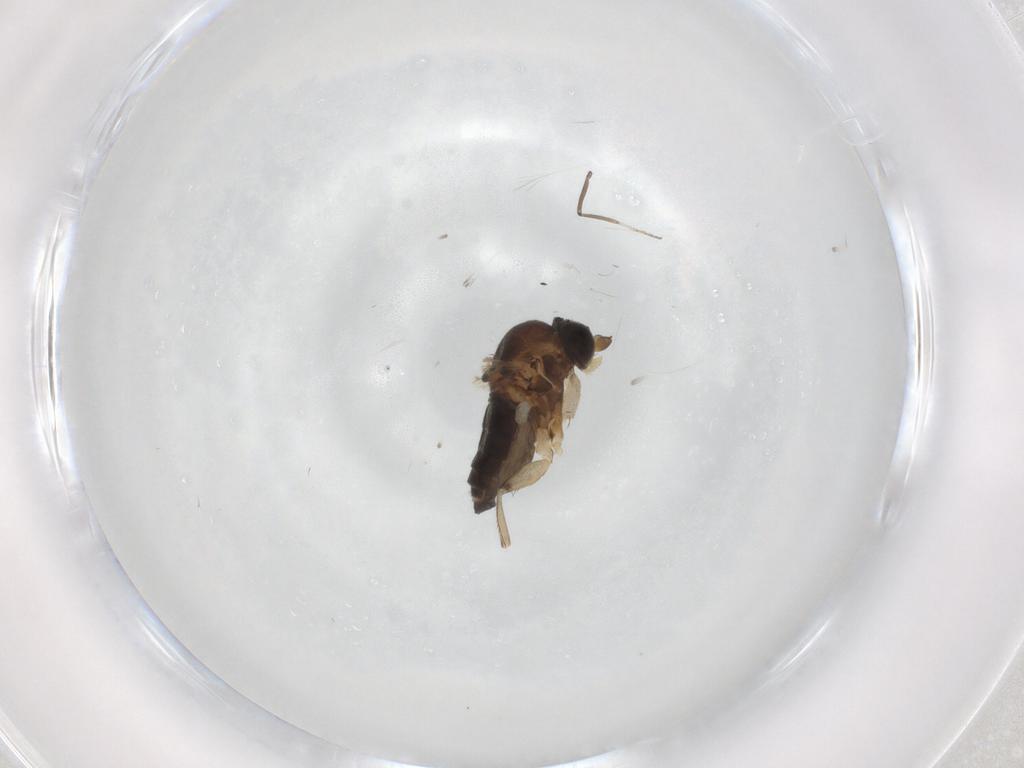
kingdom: Animalia
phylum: Arthropoda
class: Insecta
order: Diptera
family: Phoridae
